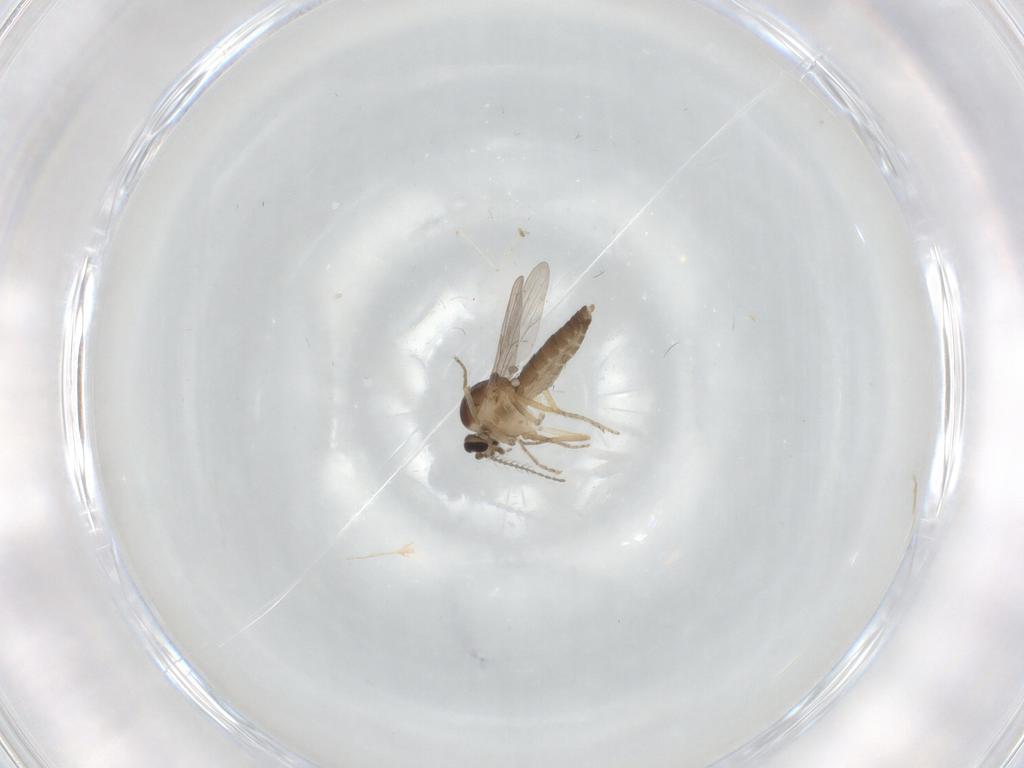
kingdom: Animalia
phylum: Arthropoda
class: Insecta
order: Diptera
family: Ceratopogonidae
